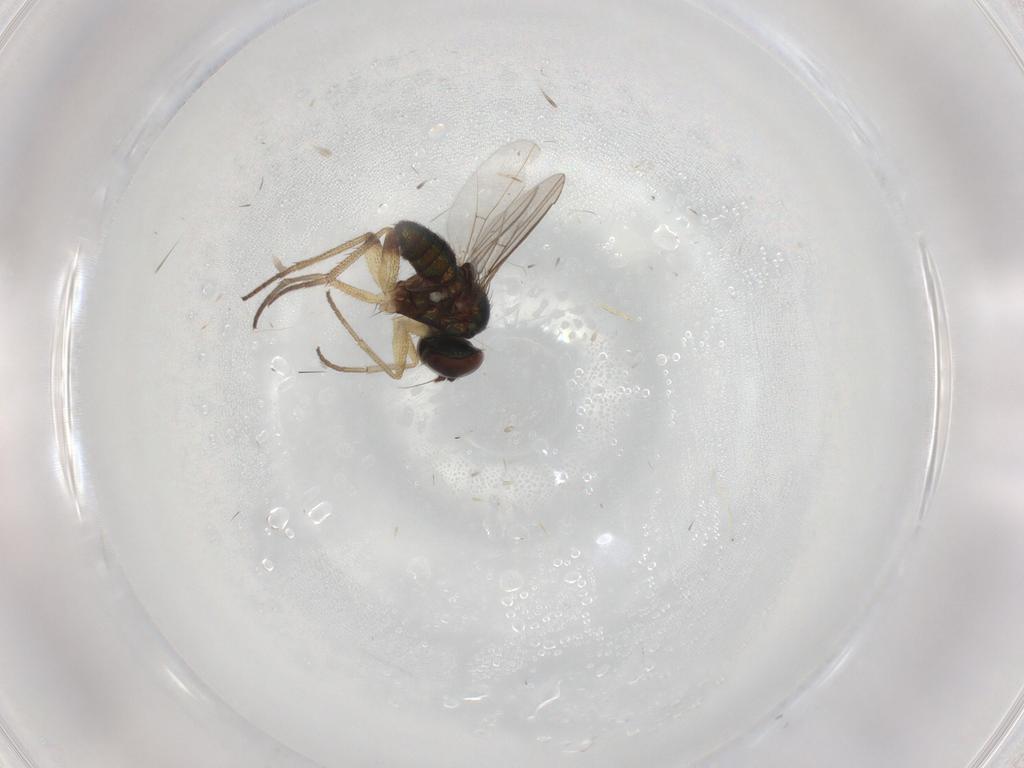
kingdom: Animalia
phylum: Arthropoda
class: Insecta
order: Diptera
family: Dolichopodidae
